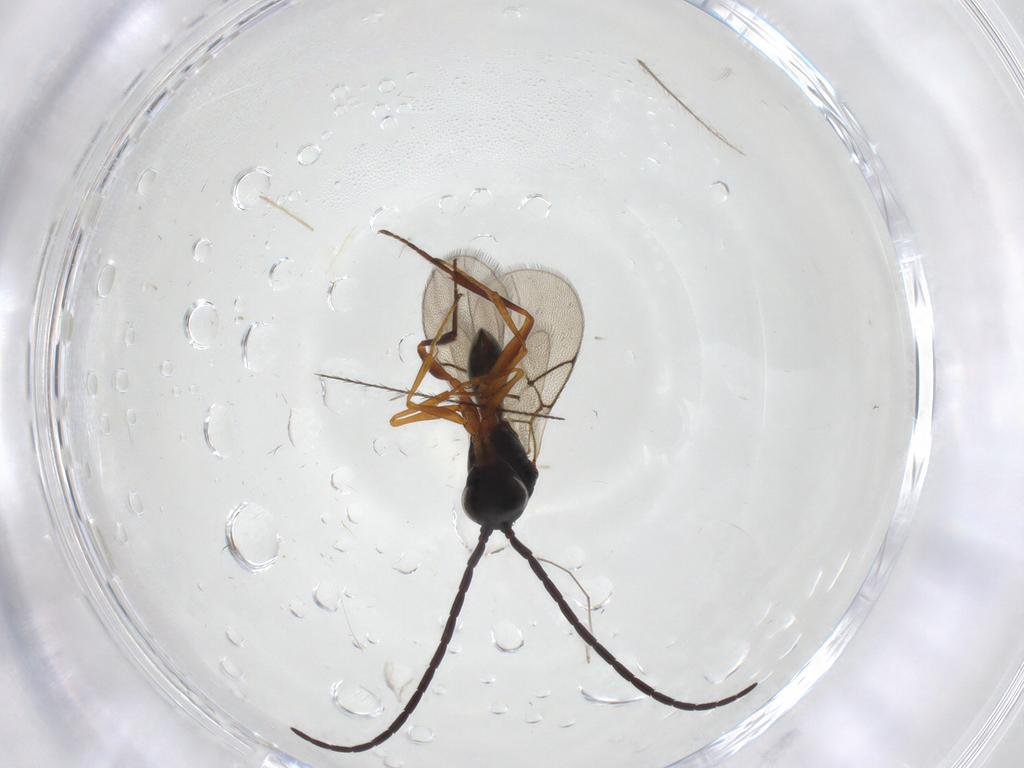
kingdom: Animalia
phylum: Arthropoda
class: Insecta
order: Hymenoptera
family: Figitidae
